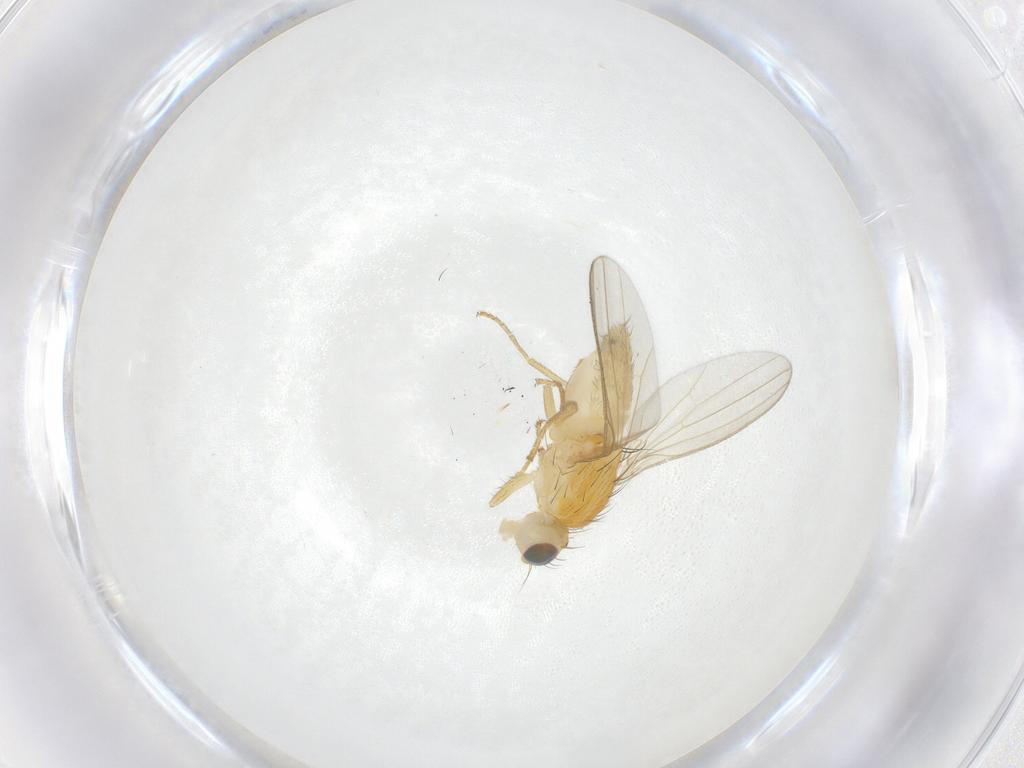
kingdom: Animalia
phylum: Arthropoda
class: Insecta
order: Diptera
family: Chyromyidae
